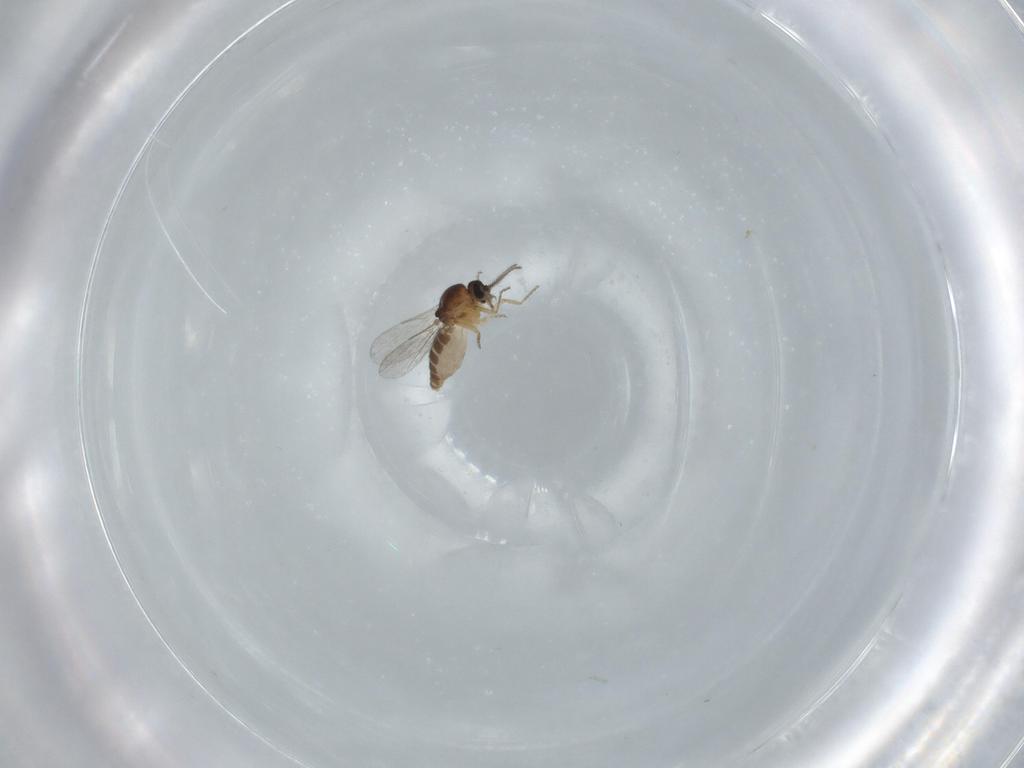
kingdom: Animalia
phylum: Arthropoda
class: Insecta
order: Diptera
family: Ceratopogonidae
